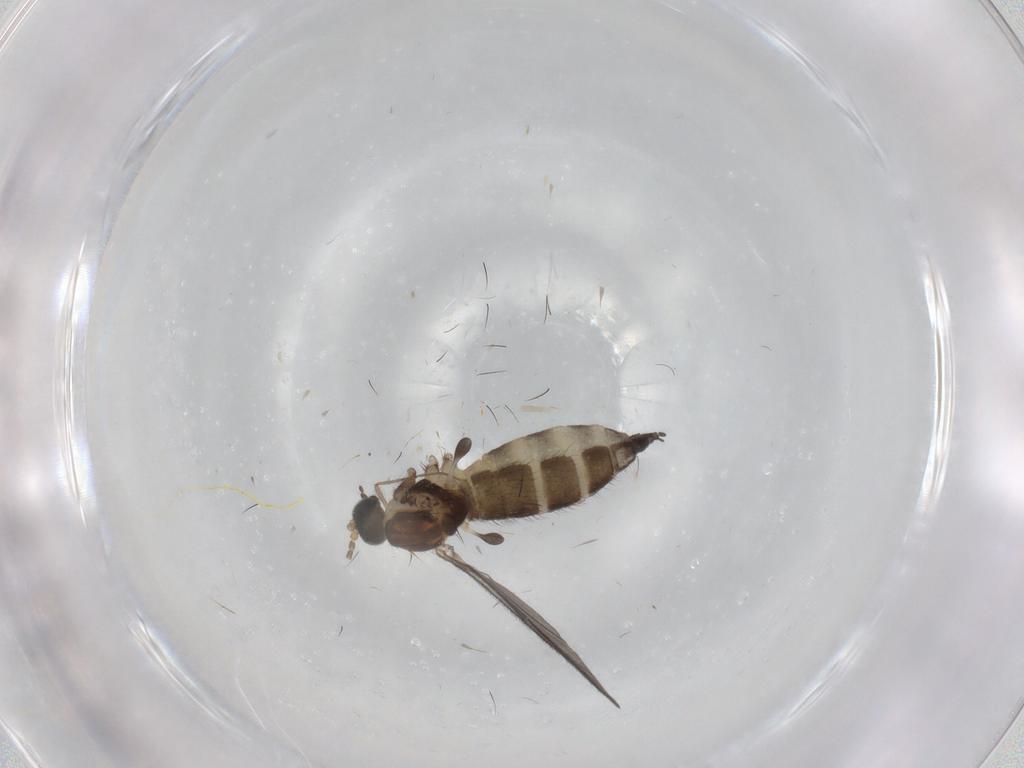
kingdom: Animalia
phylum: Arthropoda
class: Insecta
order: Diptera
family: Sciaridae
